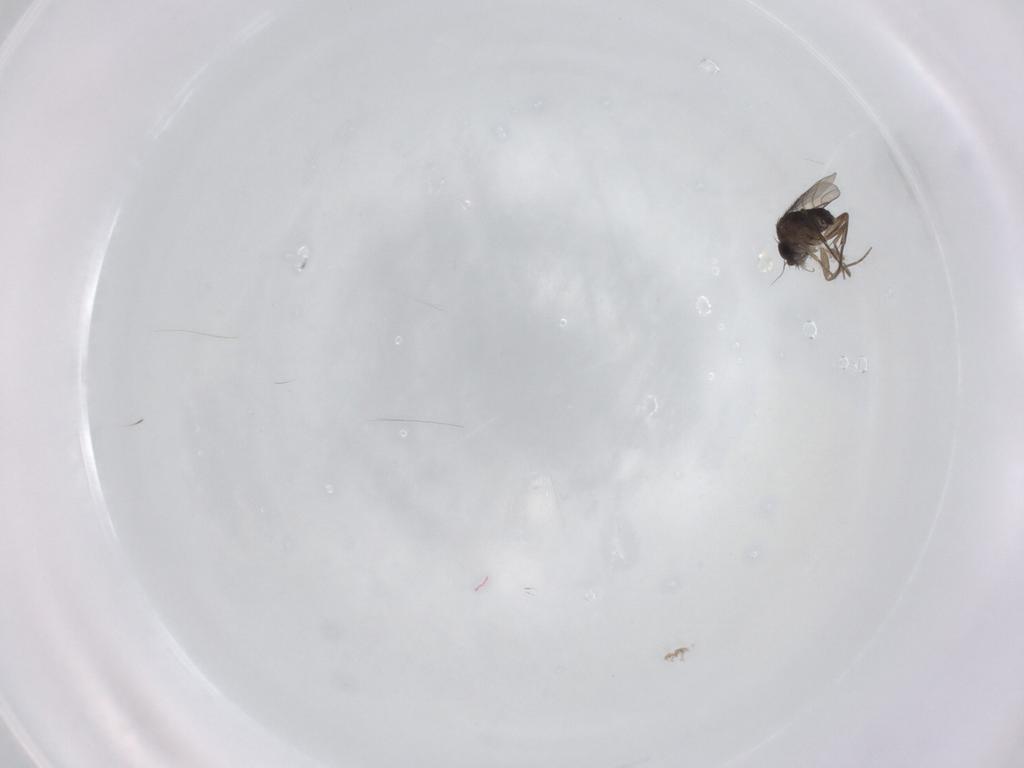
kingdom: Animalia
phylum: Arthropoda
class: Insecta
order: Diptera
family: Phoridae
